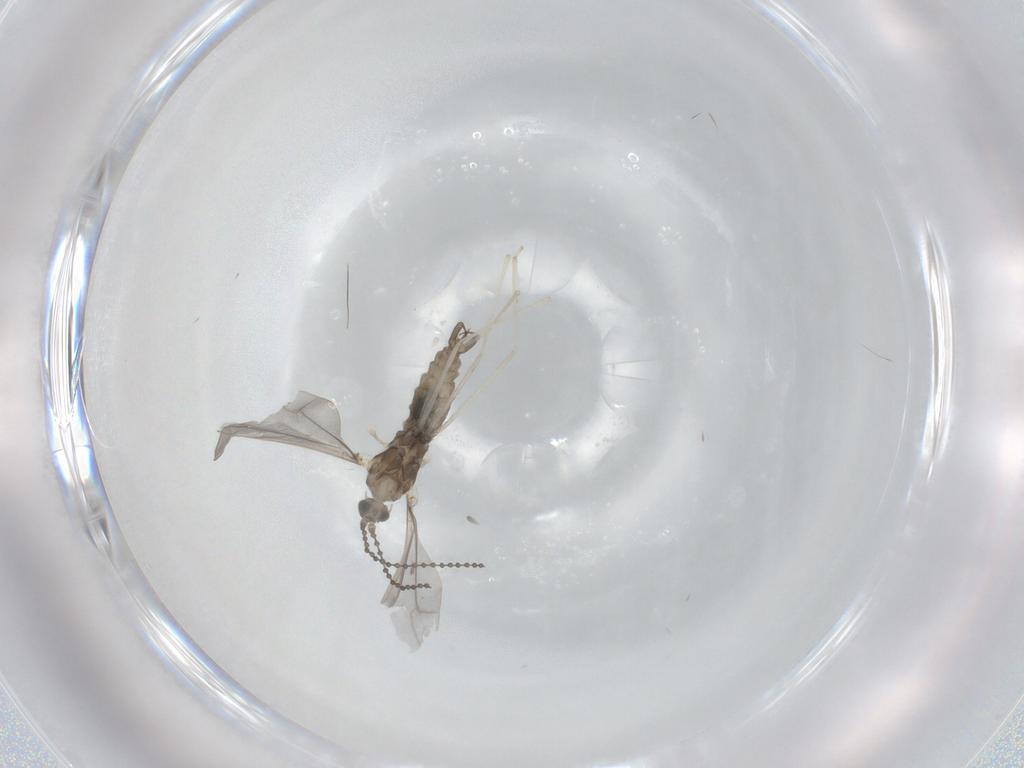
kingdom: Animalia
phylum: Arthropoda
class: Insecta
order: Diptera
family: Cecidomyiidae
